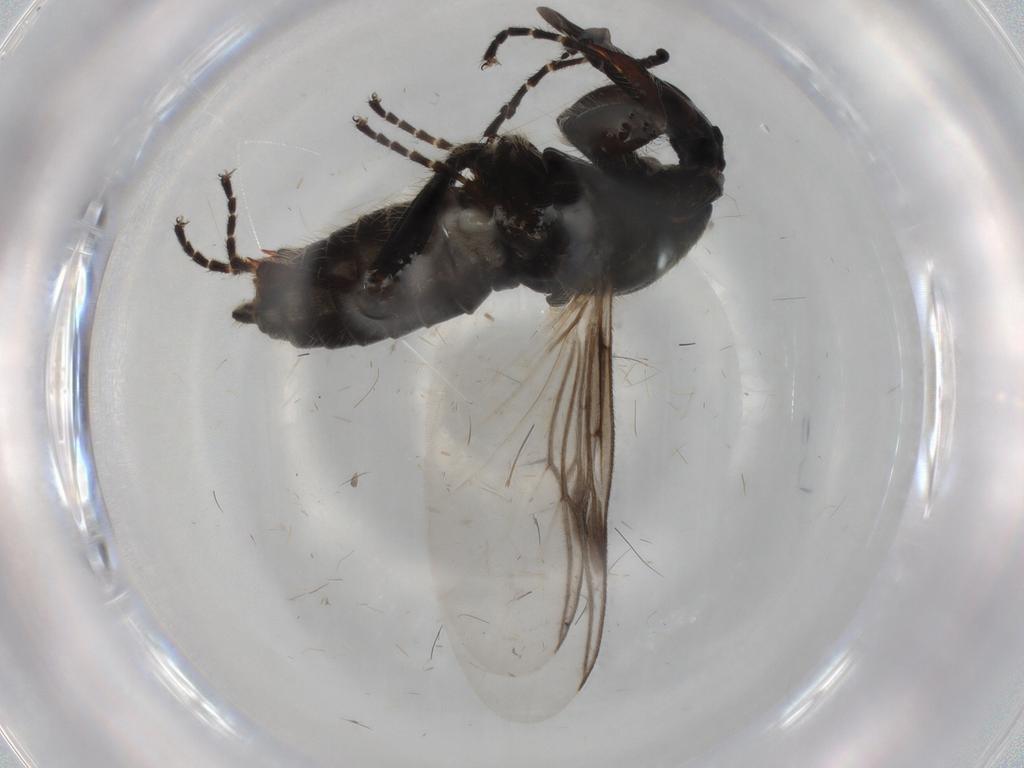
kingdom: Animalia
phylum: Arthropoda
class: Insecta
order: Diptera
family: Bibionidae
